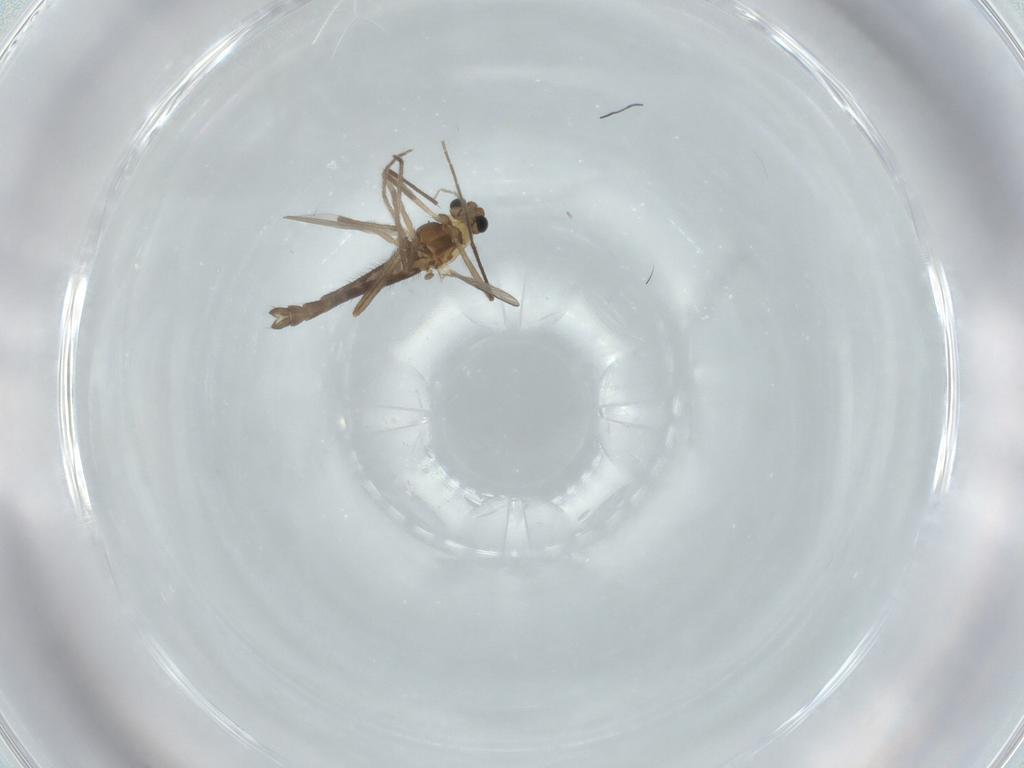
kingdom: Animalia
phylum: Arthropoda
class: Insecta
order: Diptera
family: Chironomidae
